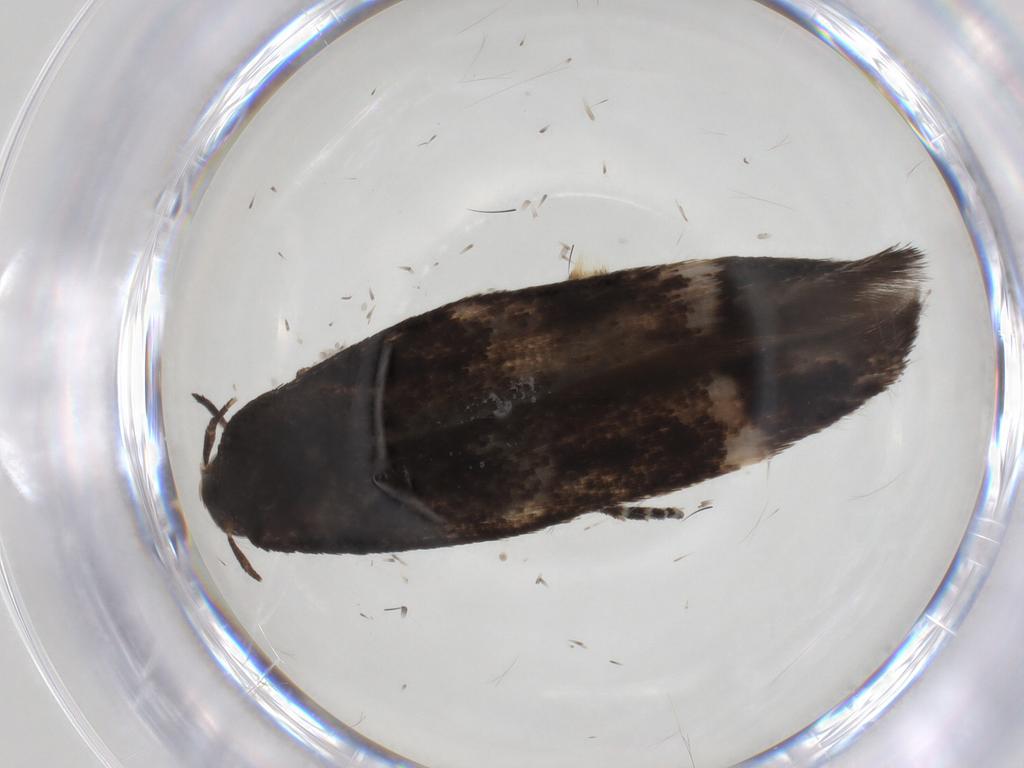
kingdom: Animalia
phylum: Arthropoda
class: Insecta
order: Lepidoptera
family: Momphidae
